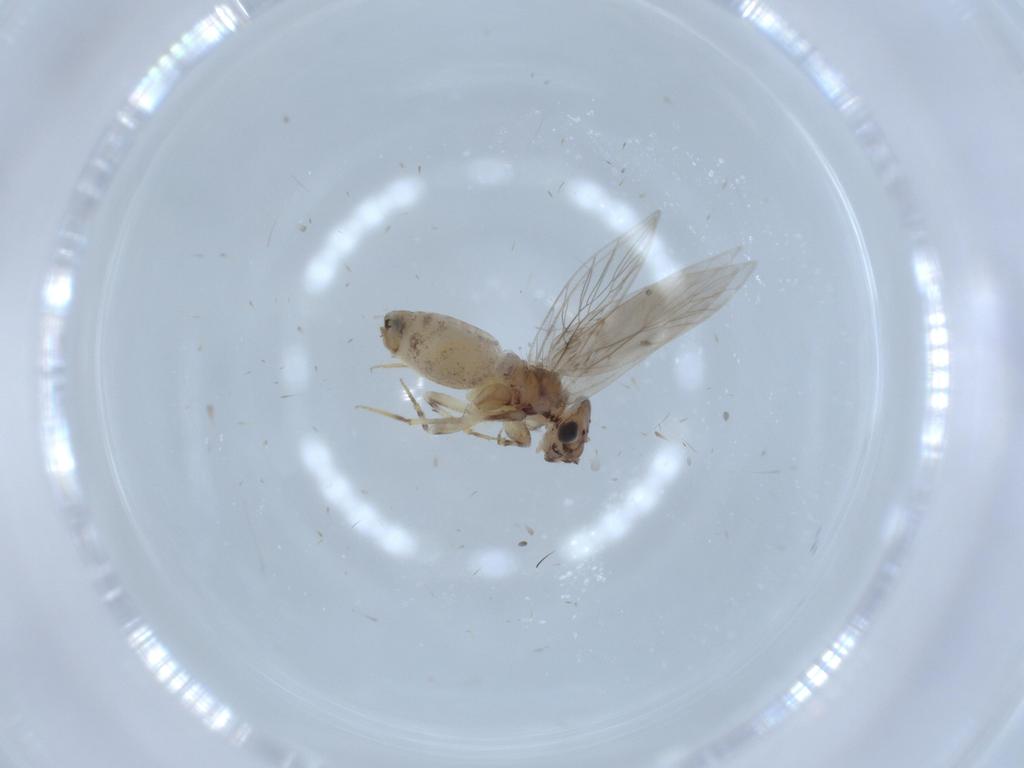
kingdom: Animalia
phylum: Arthropoda
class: Insecta
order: Psocodea
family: Lepidopsocidae
